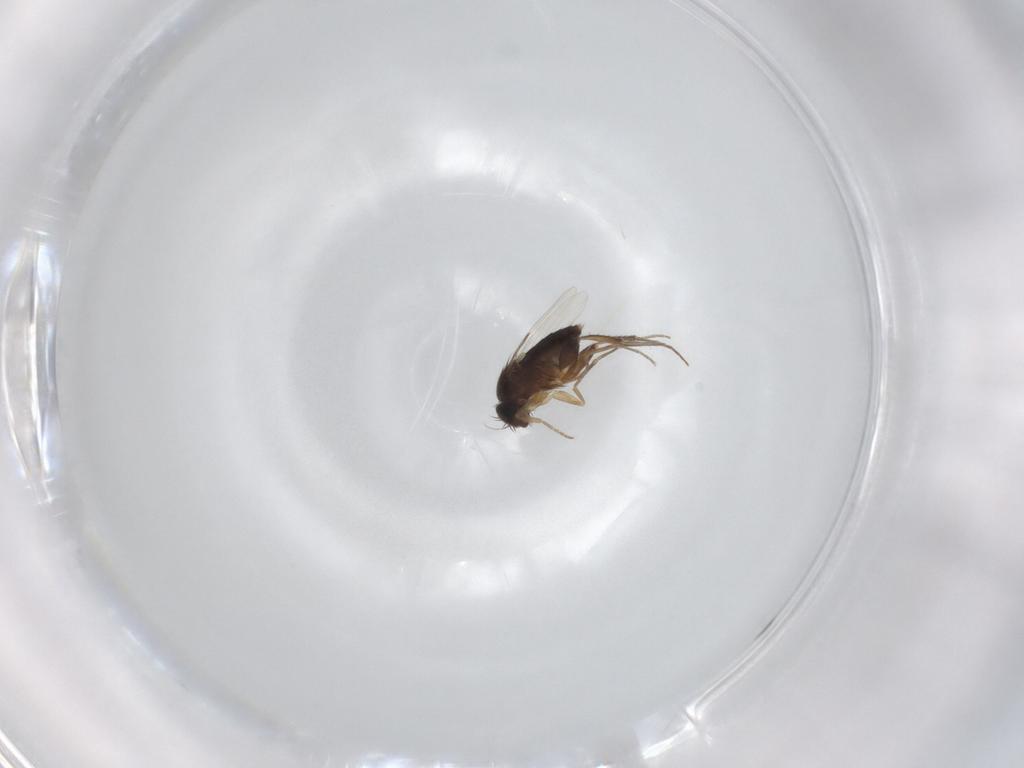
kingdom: Animalia
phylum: Arthropoda
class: Insecta
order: Diptera
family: Phoridae
